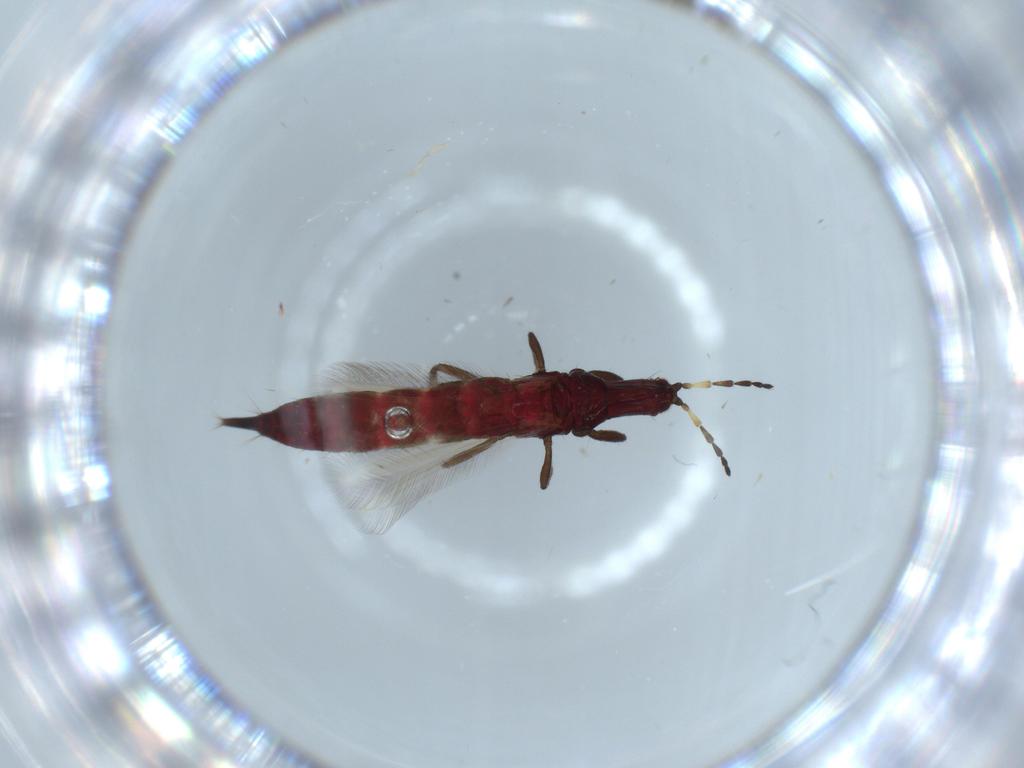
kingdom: Animalia
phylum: Arthropoda
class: Insecta
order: Thysanoptera
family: Phlaeothripidae
